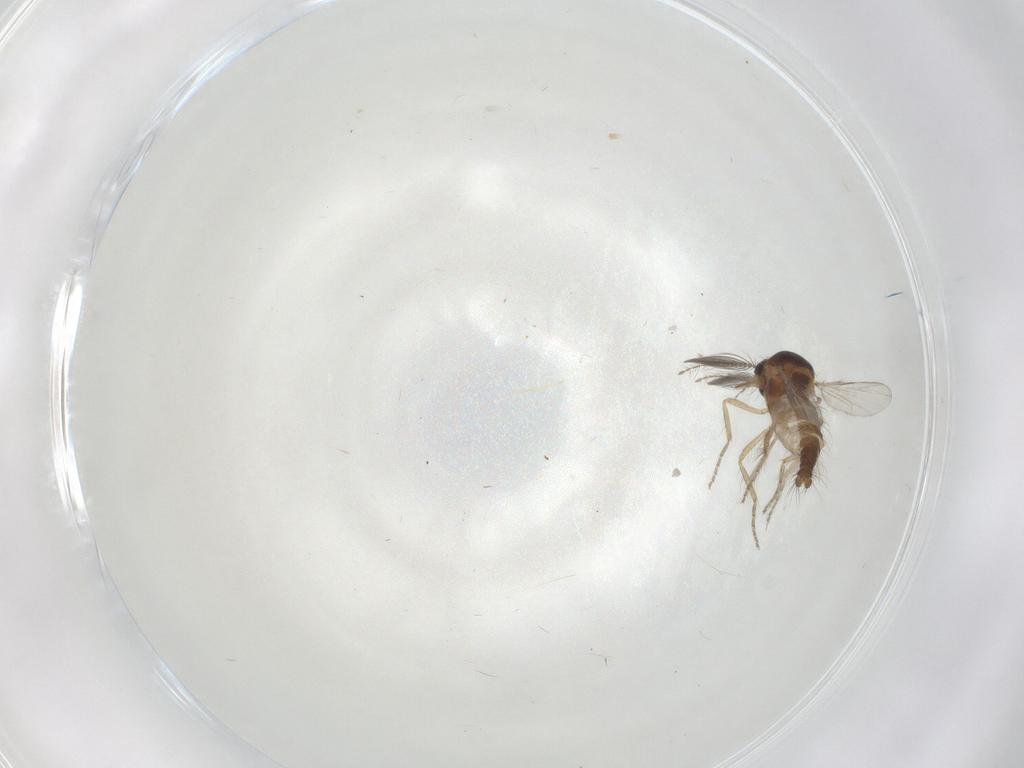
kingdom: Animalia
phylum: Arthropoda
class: Insecta
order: Diptera
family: Ceratopogonidae
